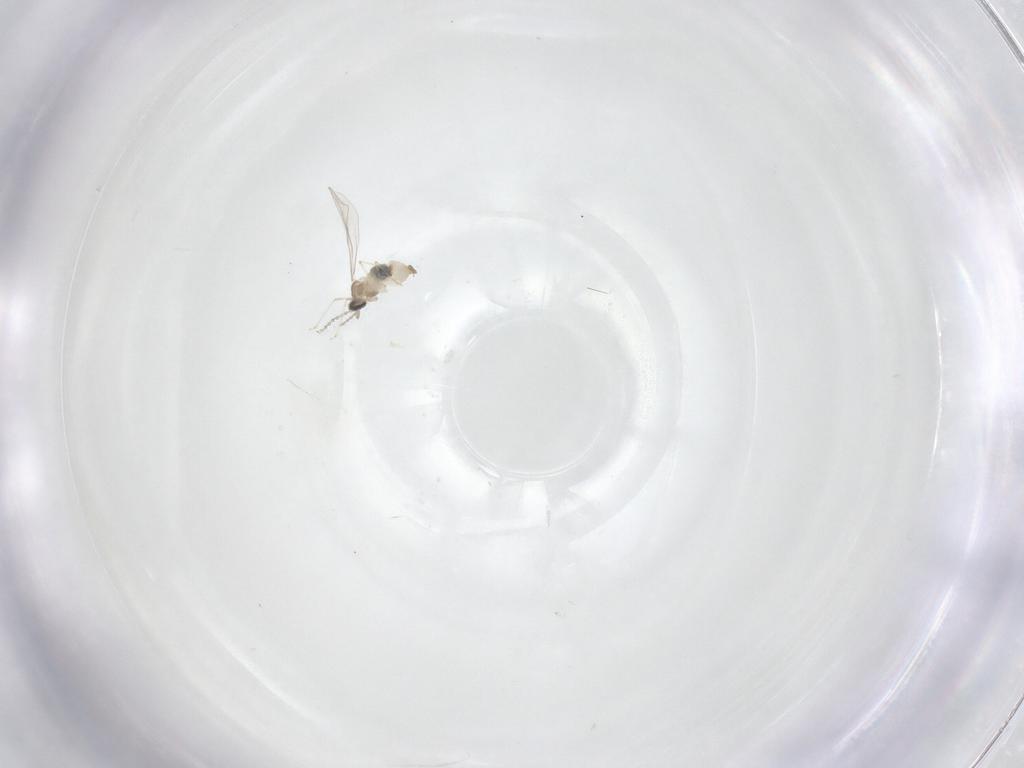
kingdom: Animalia
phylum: Arthropoda
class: Insecta
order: Diptera
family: Cecidomyiidae
